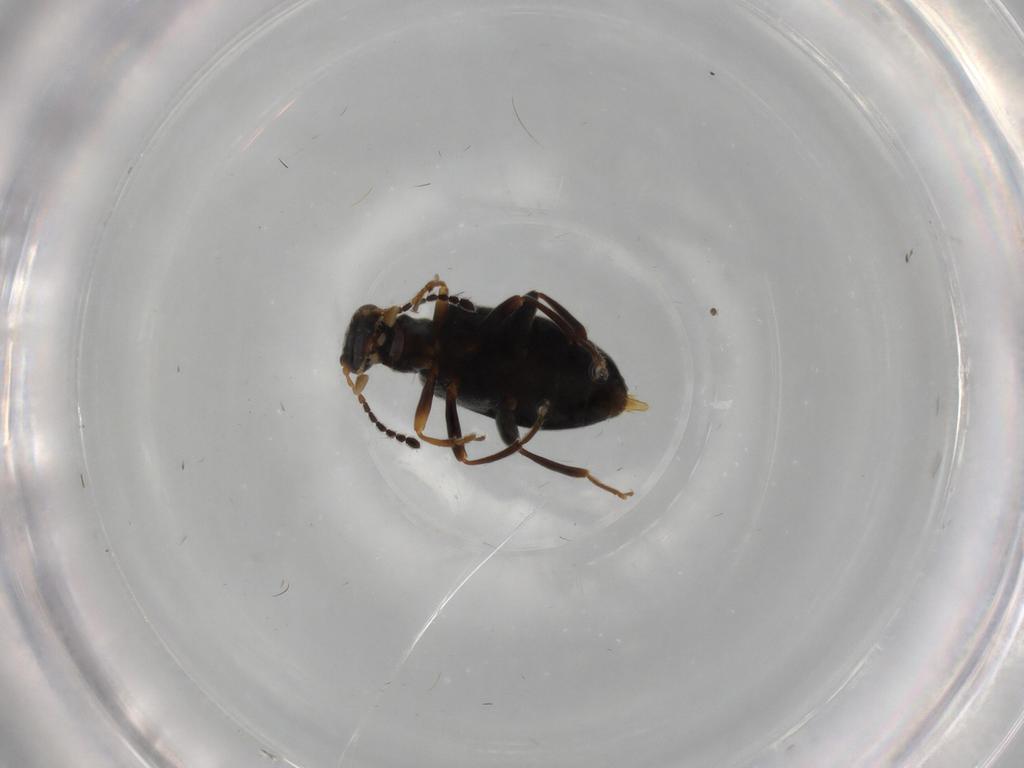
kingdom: Animalia
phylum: Arthropoda
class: Insecta
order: Coleoptera
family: Aderidae
